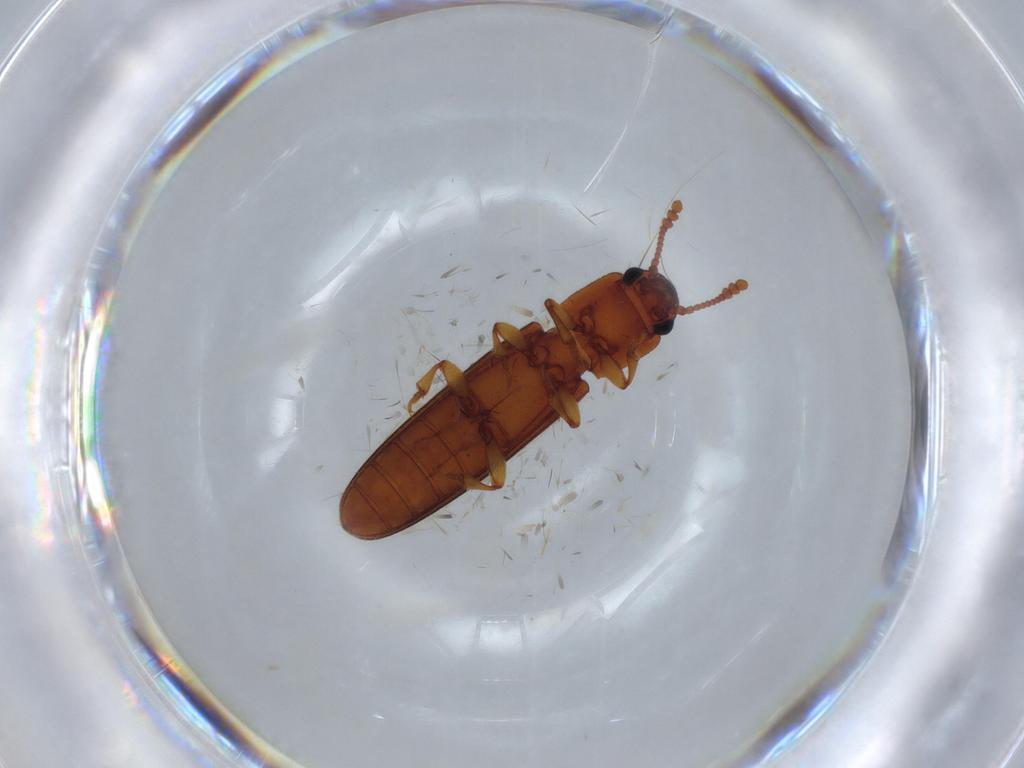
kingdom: Animalia
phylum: Arthropoda
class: Insecta
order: Coleoptera
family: Erotylidae
